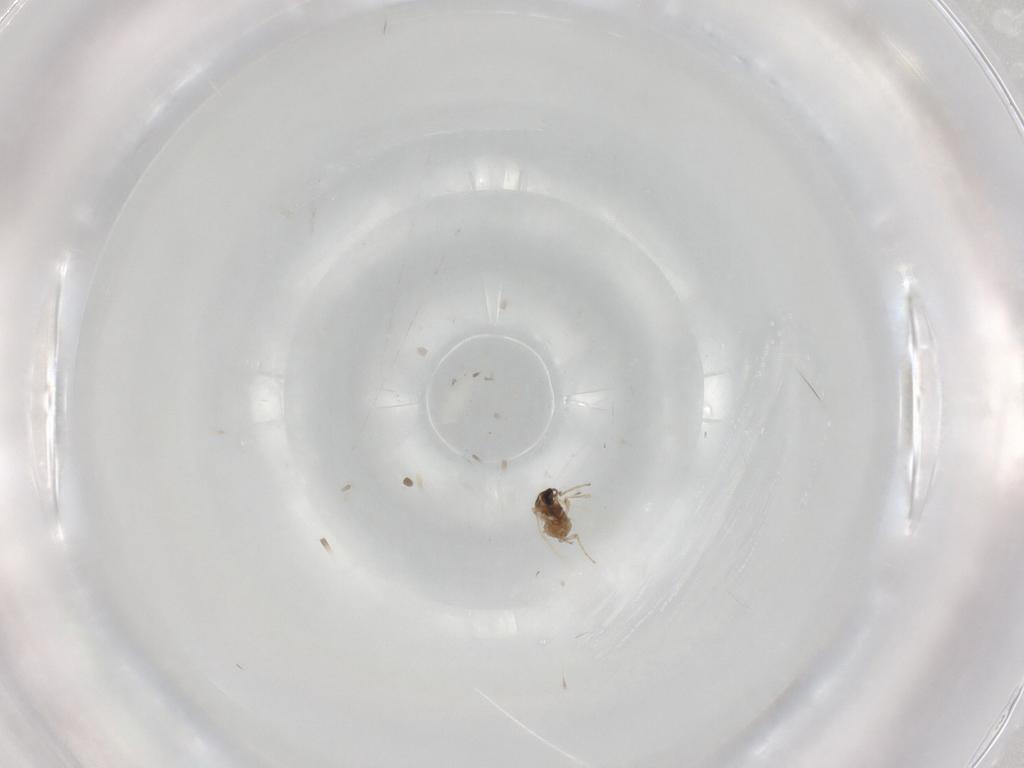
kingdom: Animalia
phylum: Arthropoda
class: Insecta
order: Diptera
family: Cecidomyiidae
